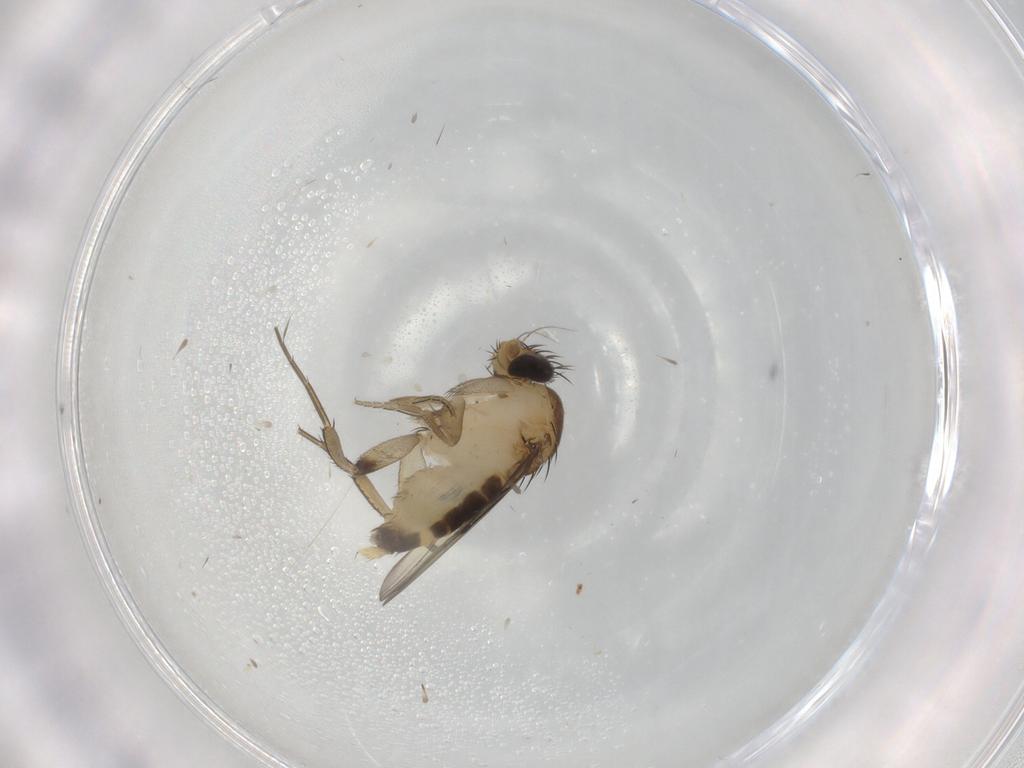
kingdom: Animalia
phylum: Arthropoda
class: Insecta
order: Diptera
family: Phoridae
